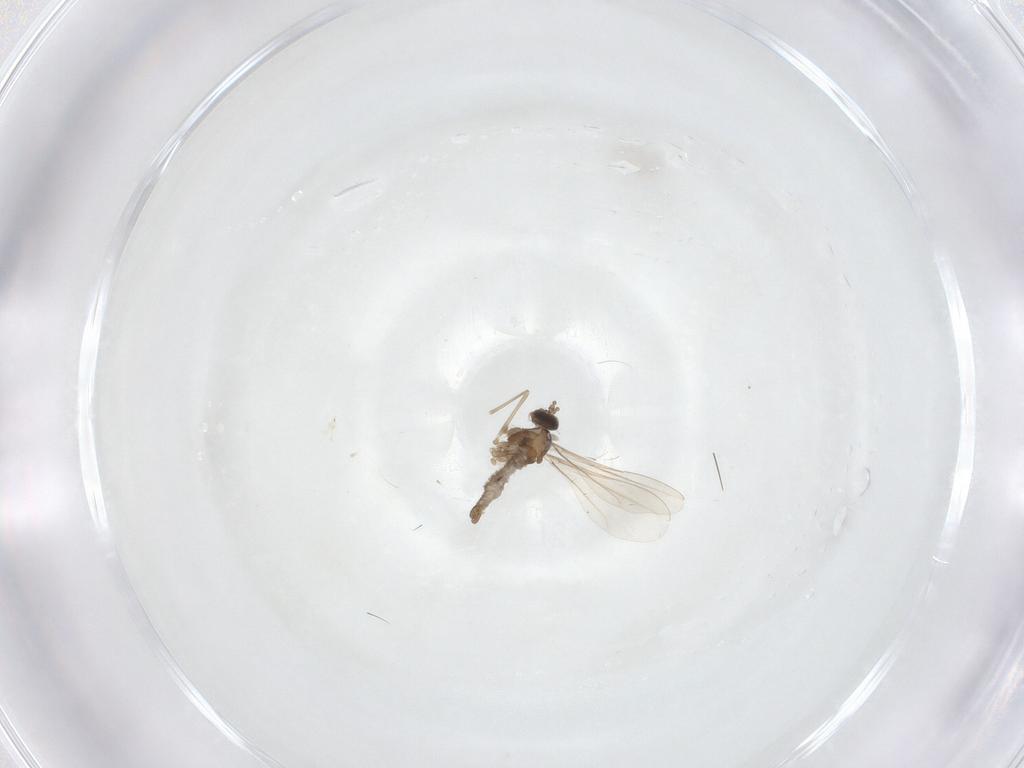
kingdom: Animalia
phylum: Arthropoda
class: Insecta
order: Diptera
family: Cecidomyiidae
